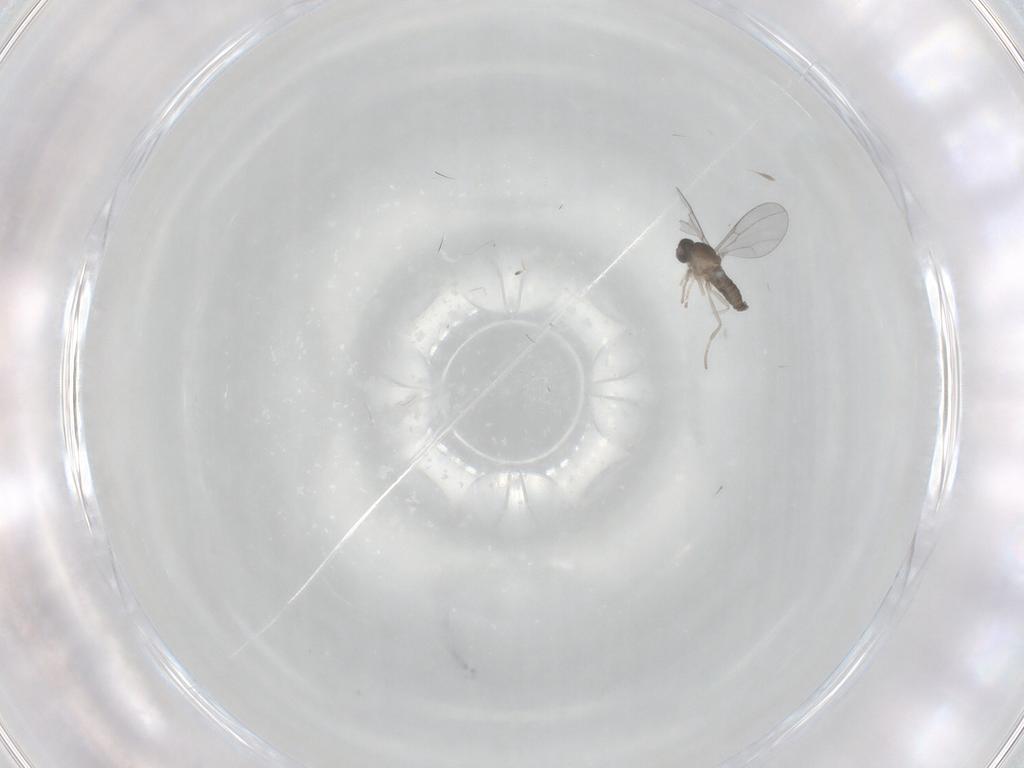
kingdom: Animalia
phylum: Arthropoda
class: Insecta
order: Diptera
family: Cecidomyiidae
